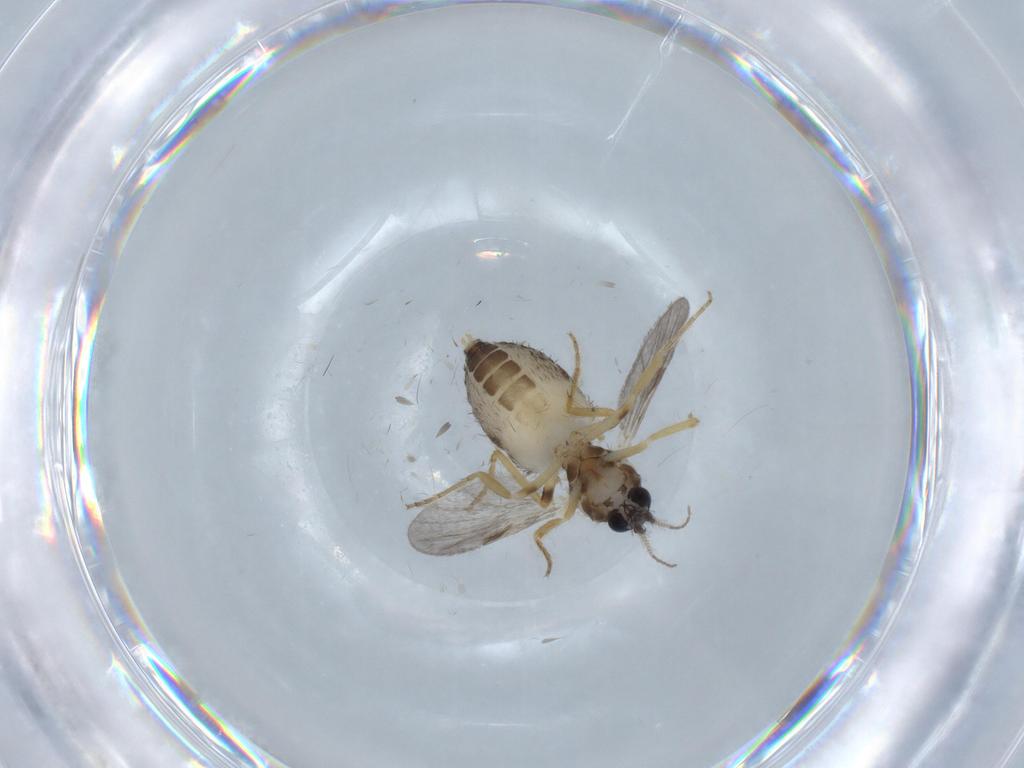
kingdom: Animalia
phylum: Arthropoda
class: Insecta
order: Diptera
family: Ceratopogonidae
